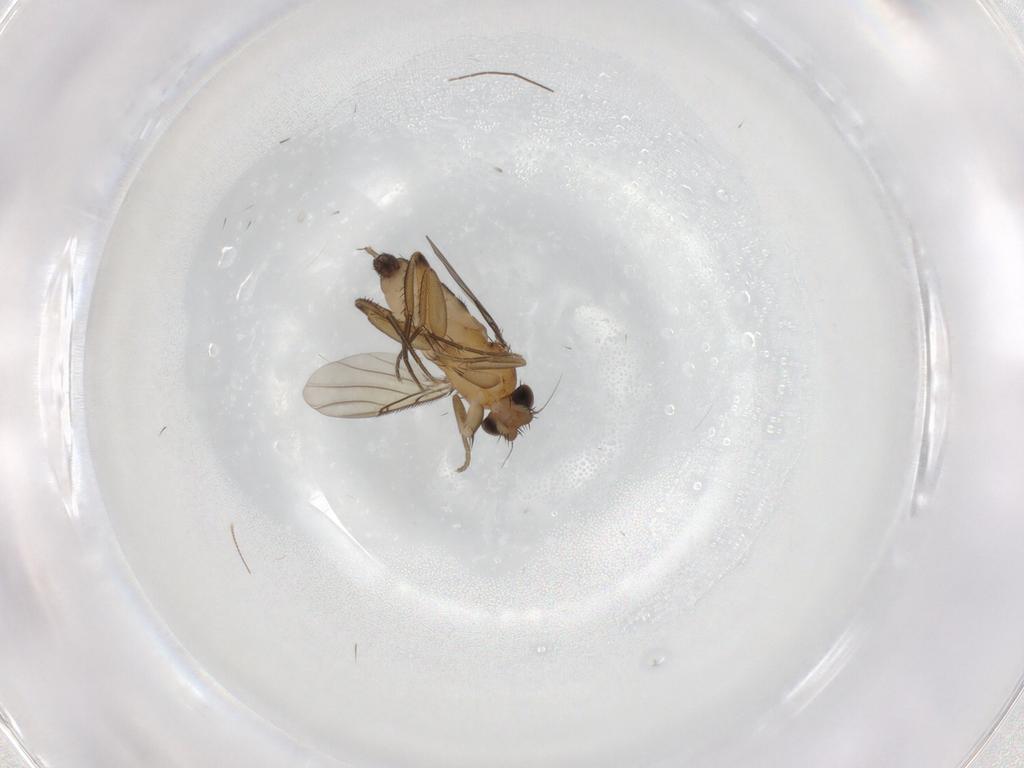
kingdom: Animalia
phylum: Arthropoda
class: Insecta
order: Diptera
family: Phoridae
